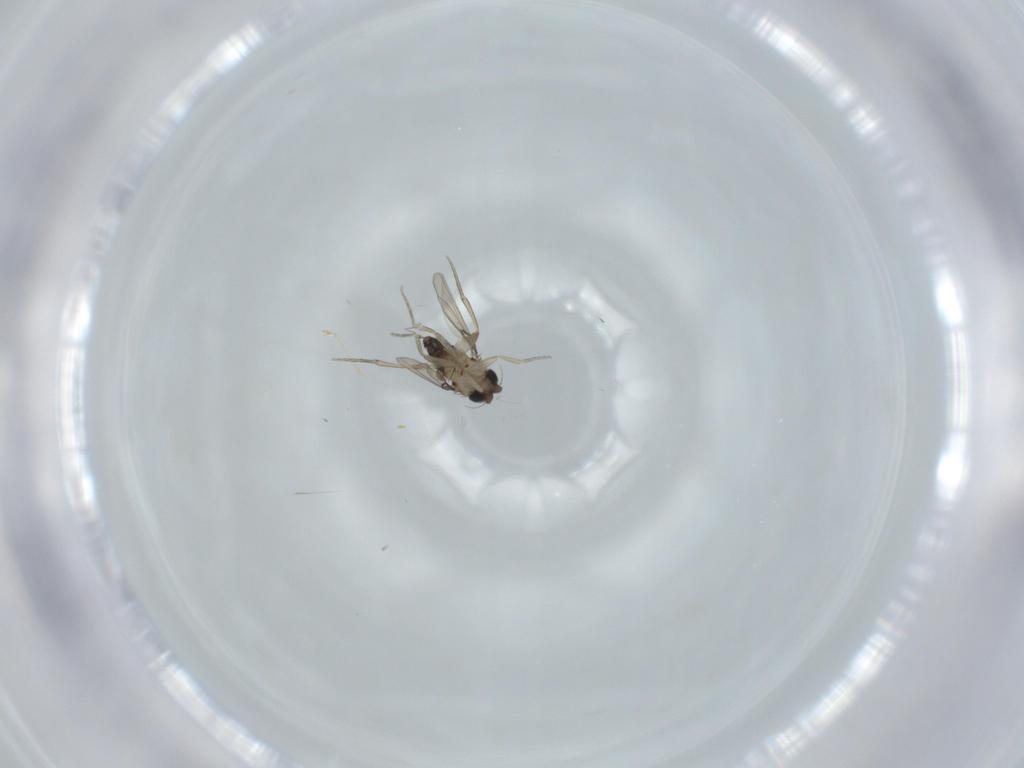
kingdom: Animalia
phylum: Arthropoda
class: Insecta
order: Diptera
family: Phoridae
